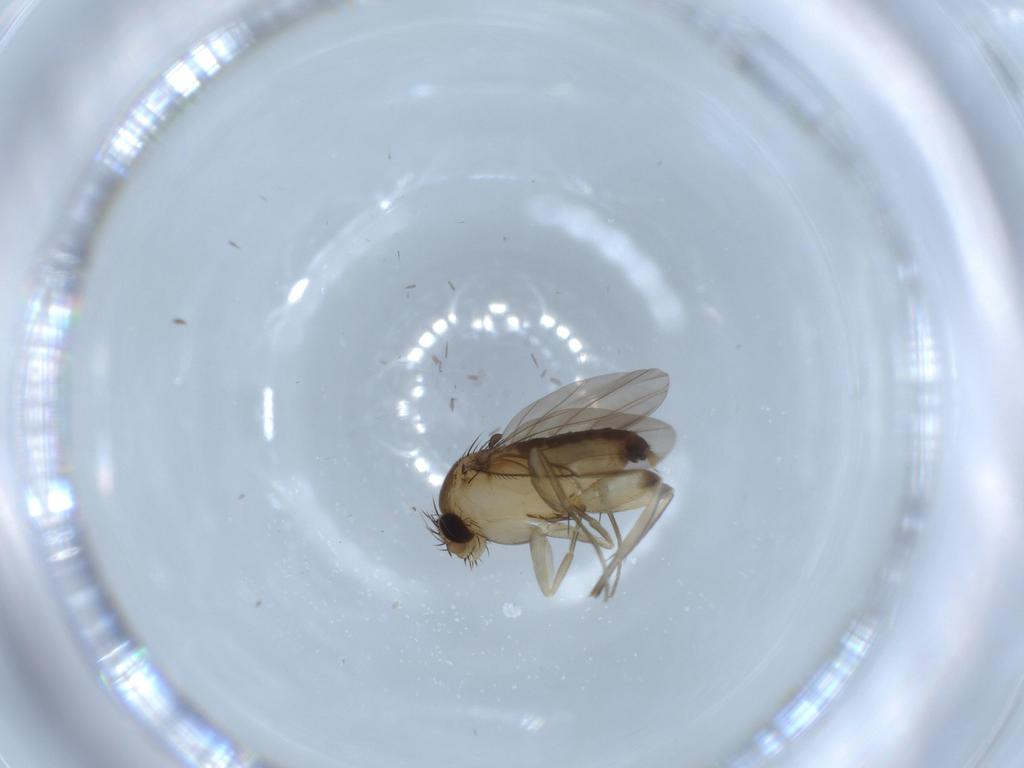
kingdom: Animalia
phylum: Arthropoda
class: Insecta
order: Diptera
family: Phoridae
